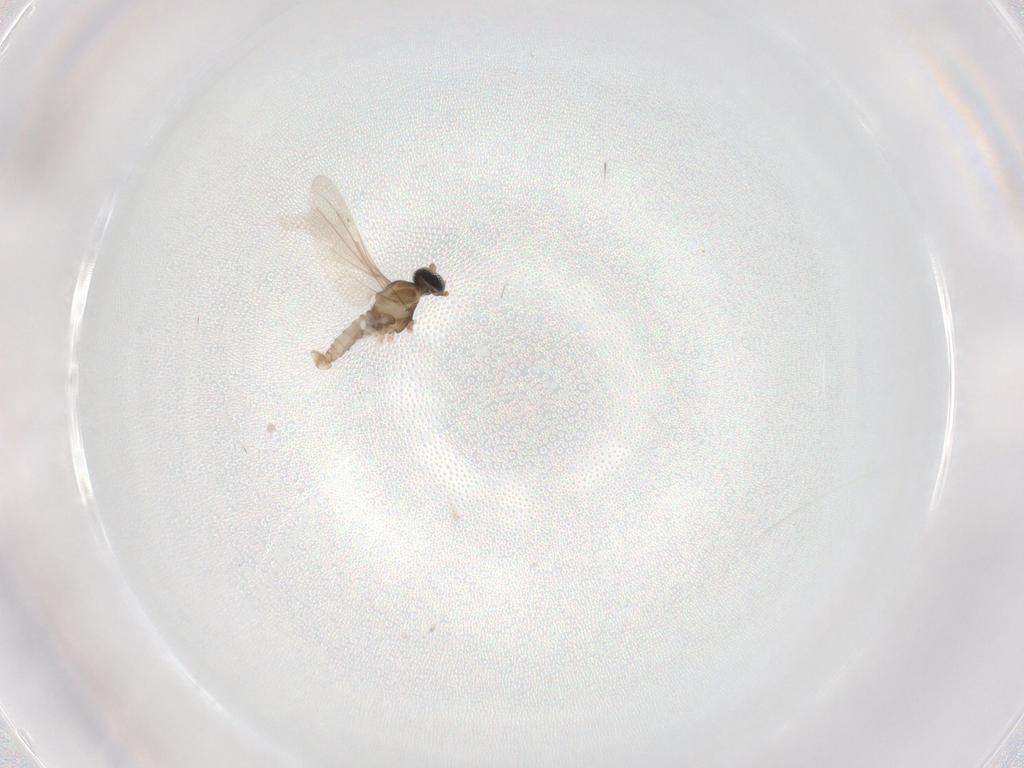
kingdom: Animalia
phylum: Arthropoda
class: Insecta
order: Diptera
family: Cecidomyiidae
